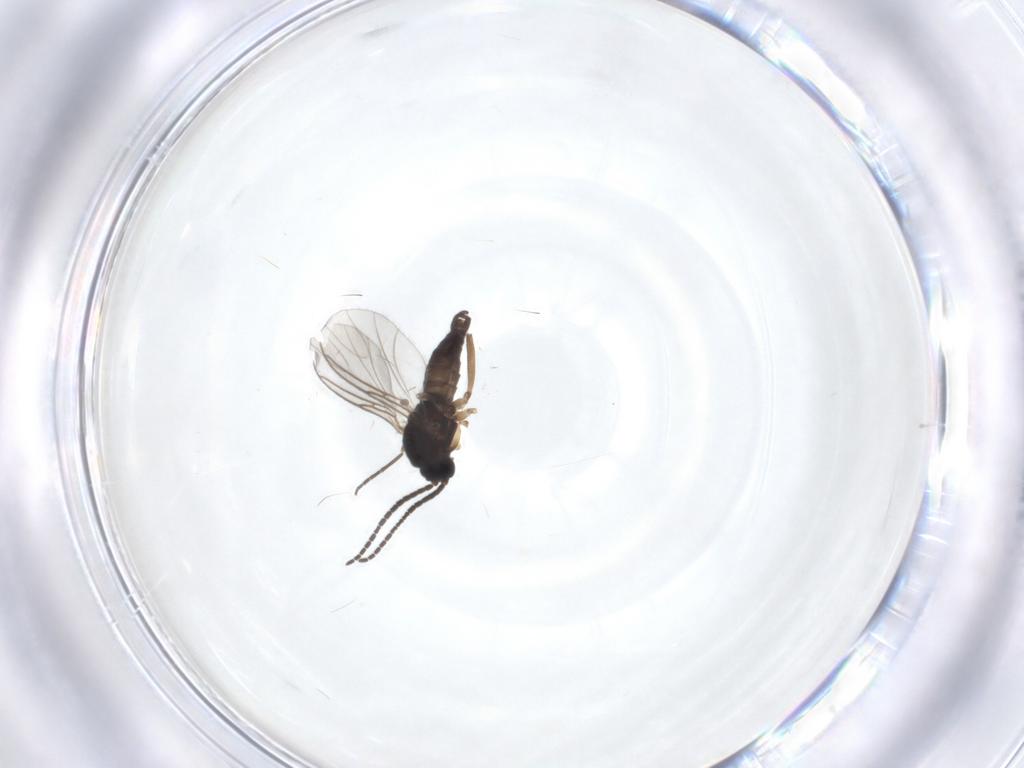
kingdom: Animalia
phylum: Arthropoda
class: Insecta
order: Diptera
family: Sciaridae
